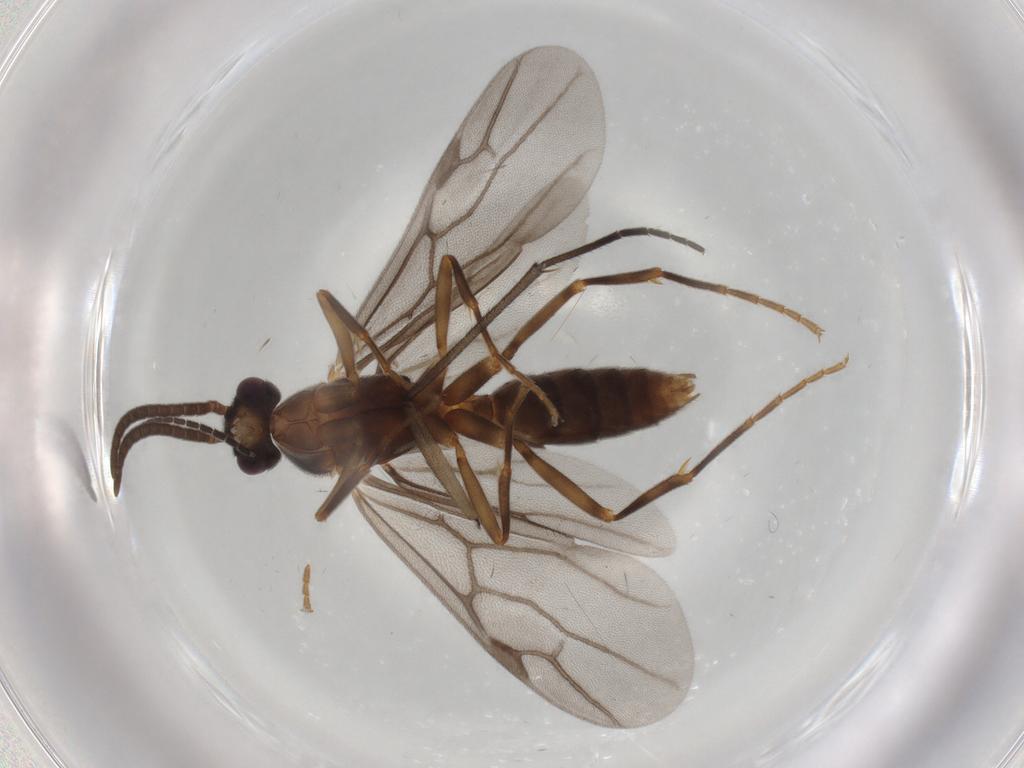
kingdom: Animalia
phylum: Arthropoda
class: Insecta
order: Hymenoptera
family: Formicidae
